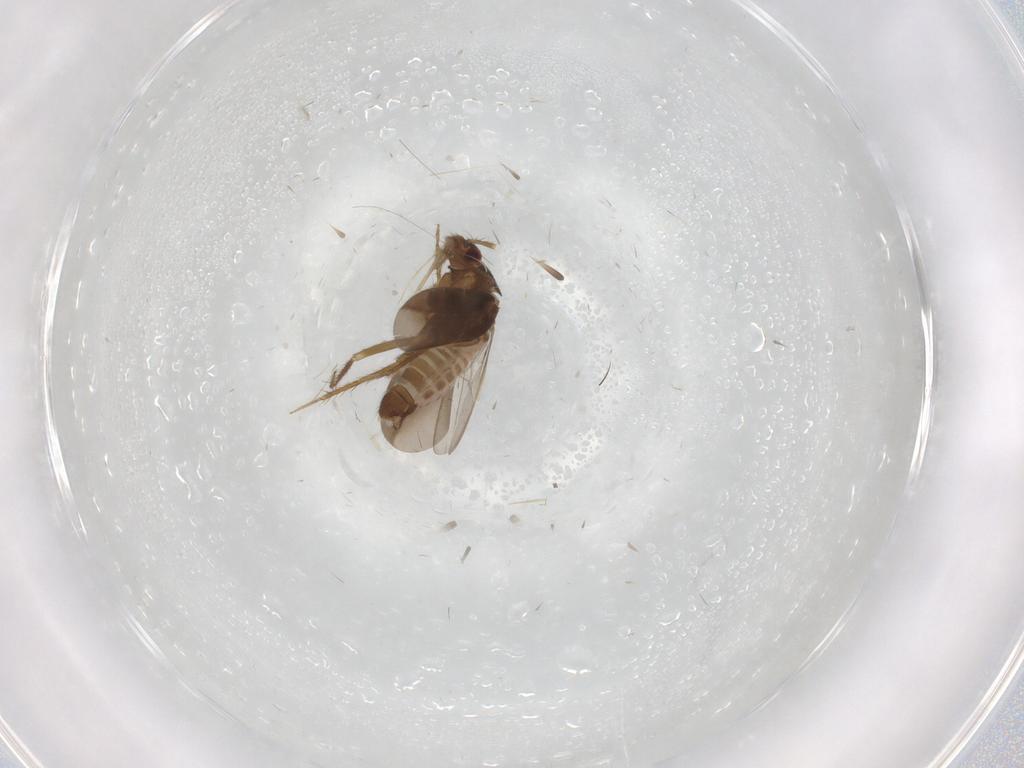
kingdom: Animalia
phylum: Arthropoda
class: Insecta
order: Hemiptera
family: Ceratocombidae
